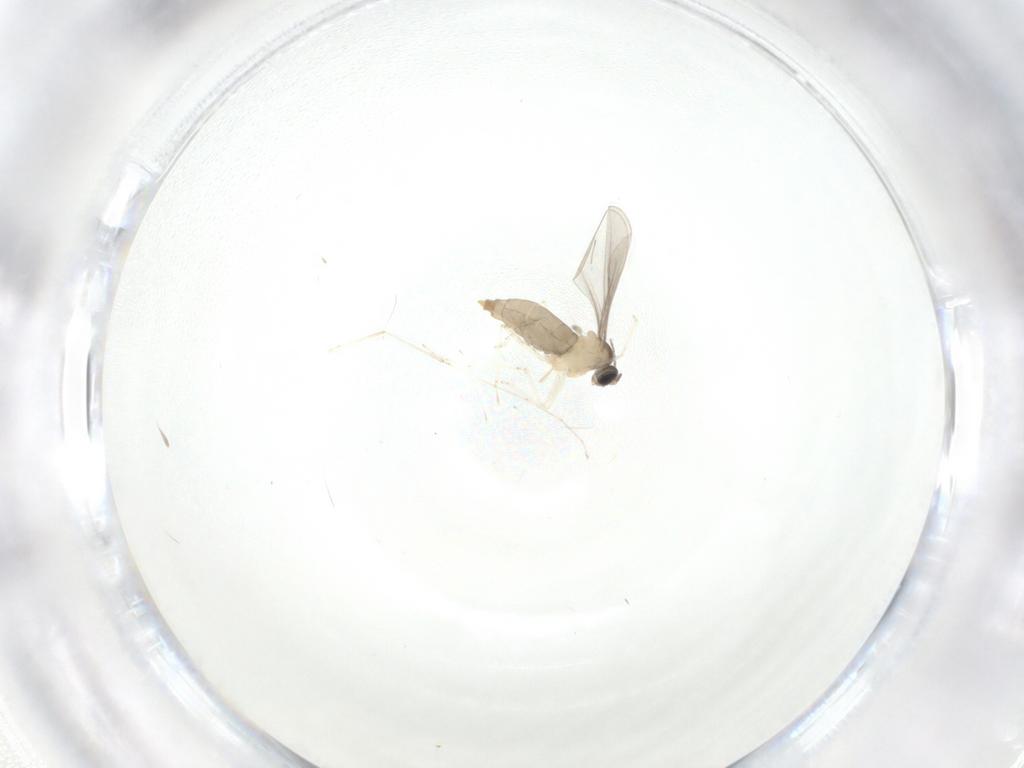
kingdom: Animalia
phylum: Arthropoda
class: Insecta
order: Diptera
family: Cecidomyiidae
